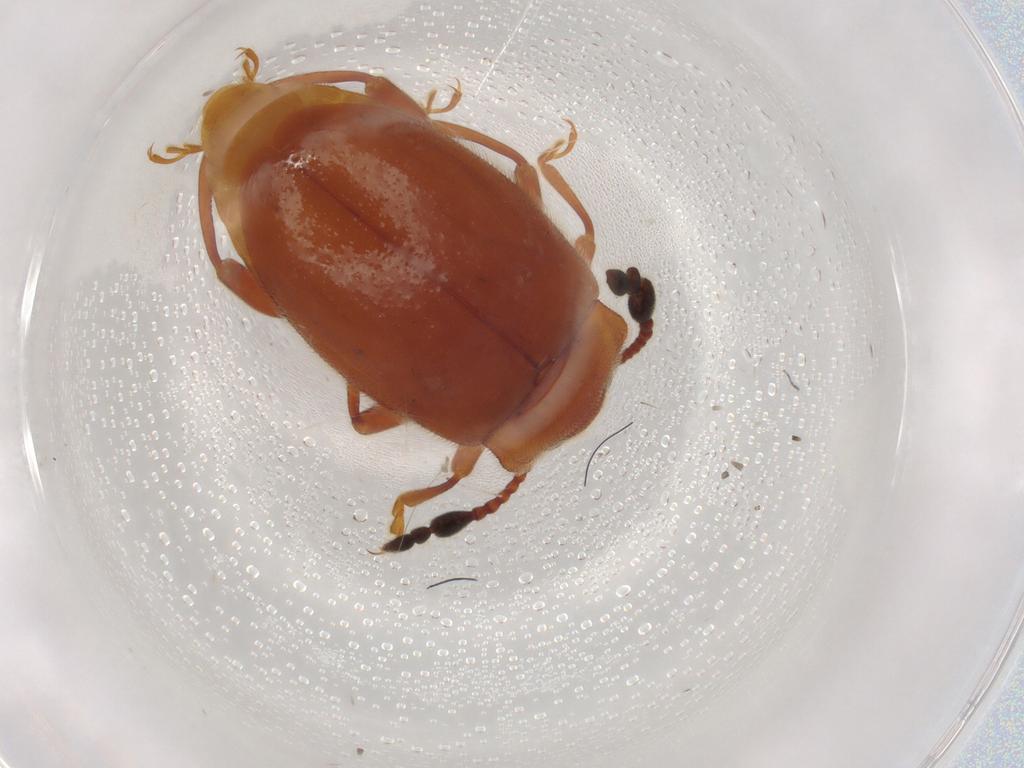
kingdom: Animalia
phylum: Arthropoda
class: Insecta
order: Coleoptera
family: Endomychidae
